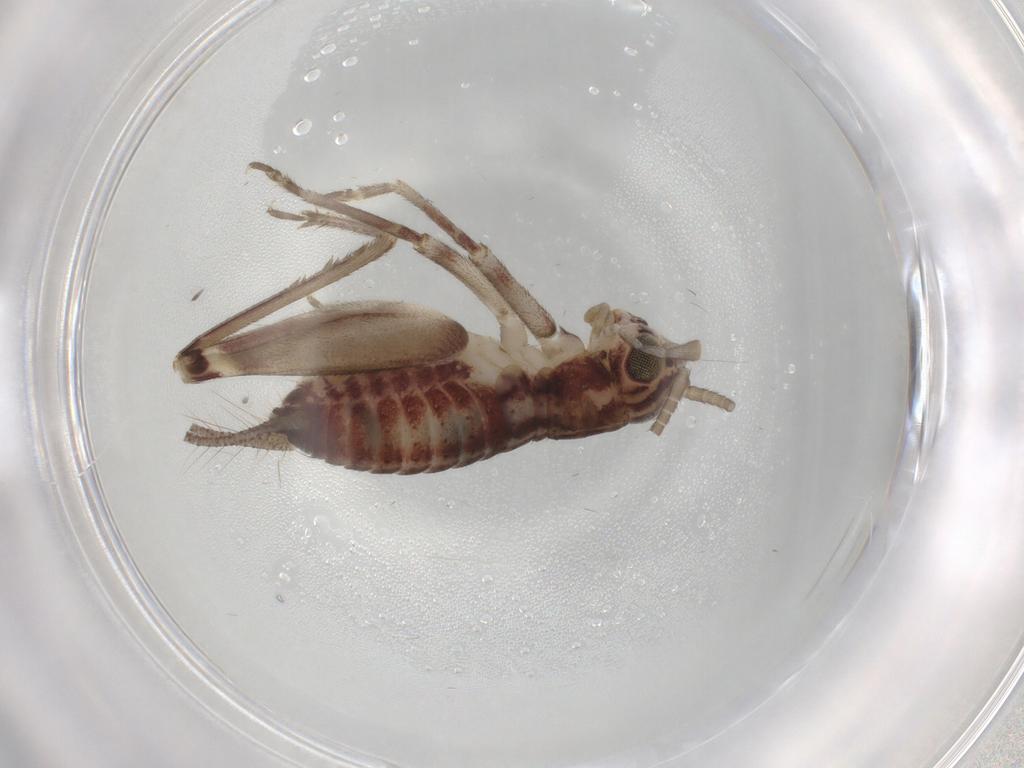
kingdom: Animalia
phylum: Arthropoda
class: Insecta
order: Orthoptera
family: Trigonidiidae
